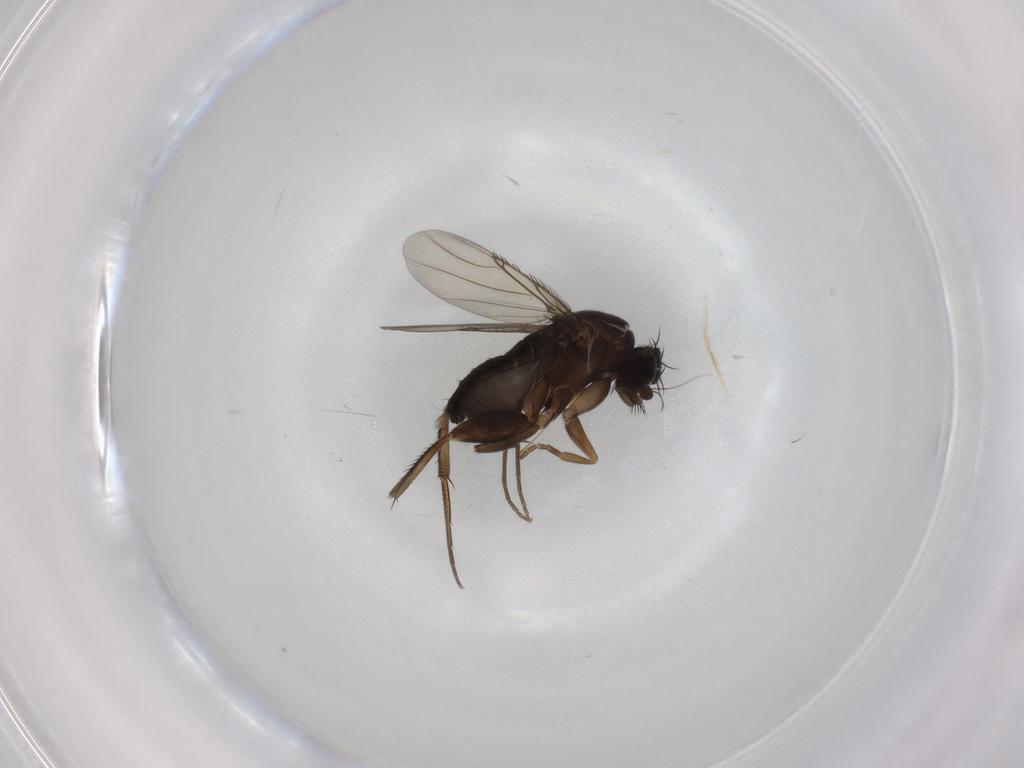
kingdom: Animalia
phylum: Arthropoda
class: Insecta
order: Diptera
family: Phoridae
